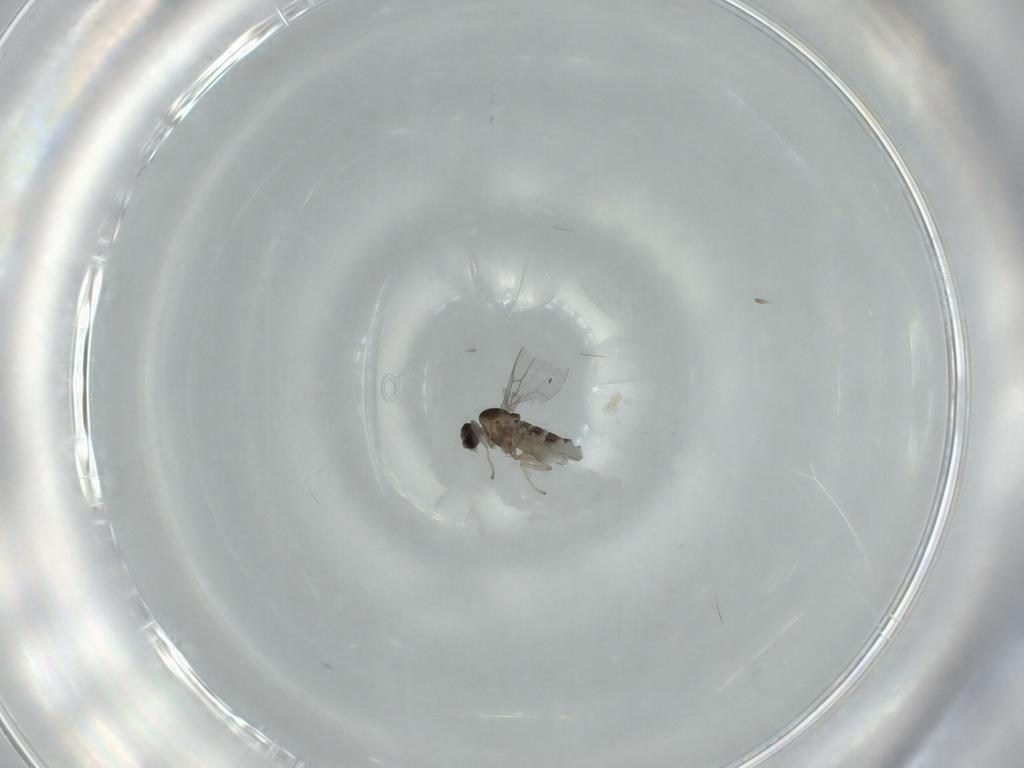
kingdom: Animalia
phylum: Arthropoda
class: Insecta
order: Diptera
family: Cecidomyiidae
